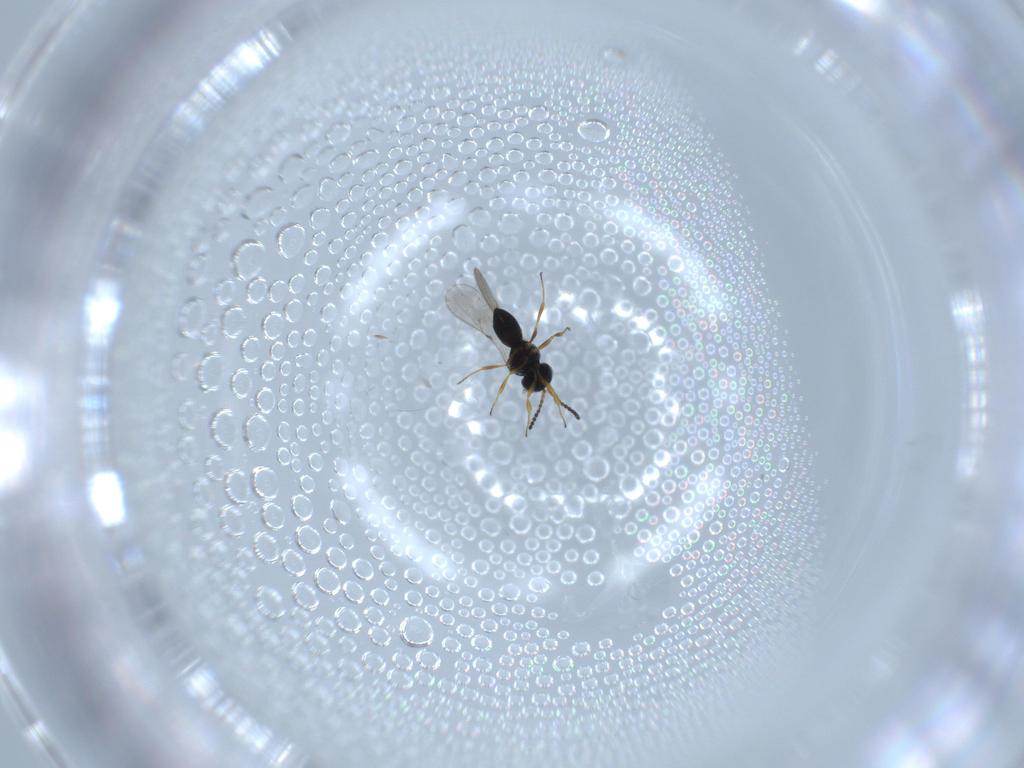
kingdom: Animalia
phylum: Arthropoda
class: Insecta
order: Hymenoptera
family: Scelionidae
